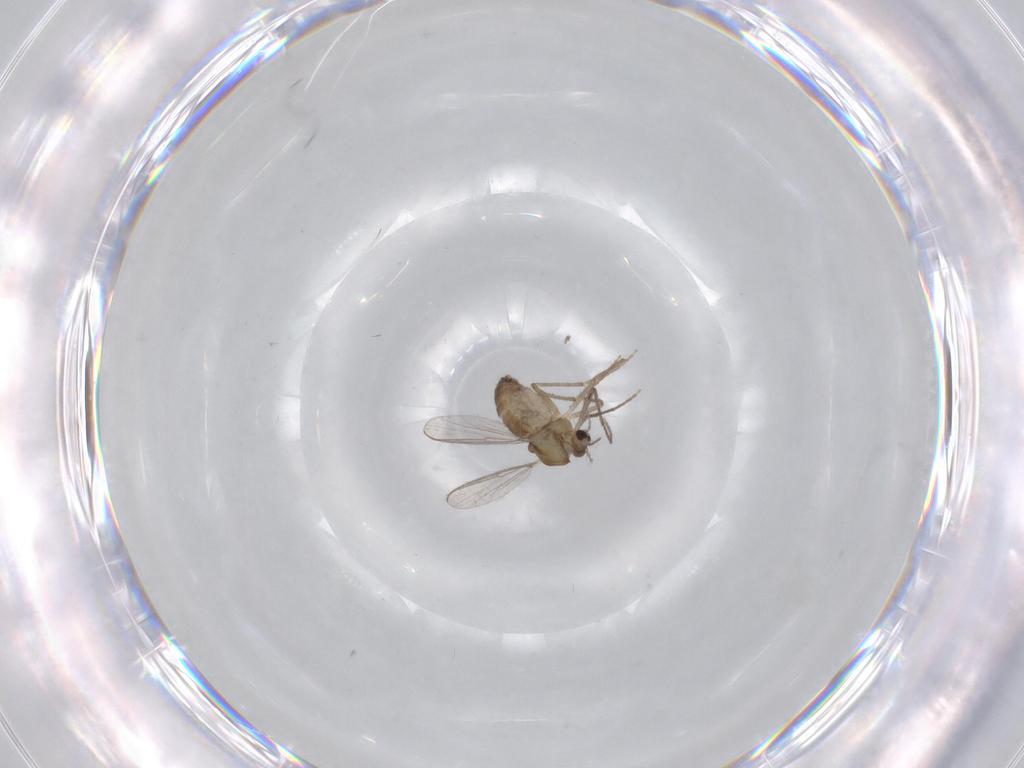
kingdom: Animalia
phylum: Arthropoda
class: Insecta
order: Diptera
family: Chironomidae
